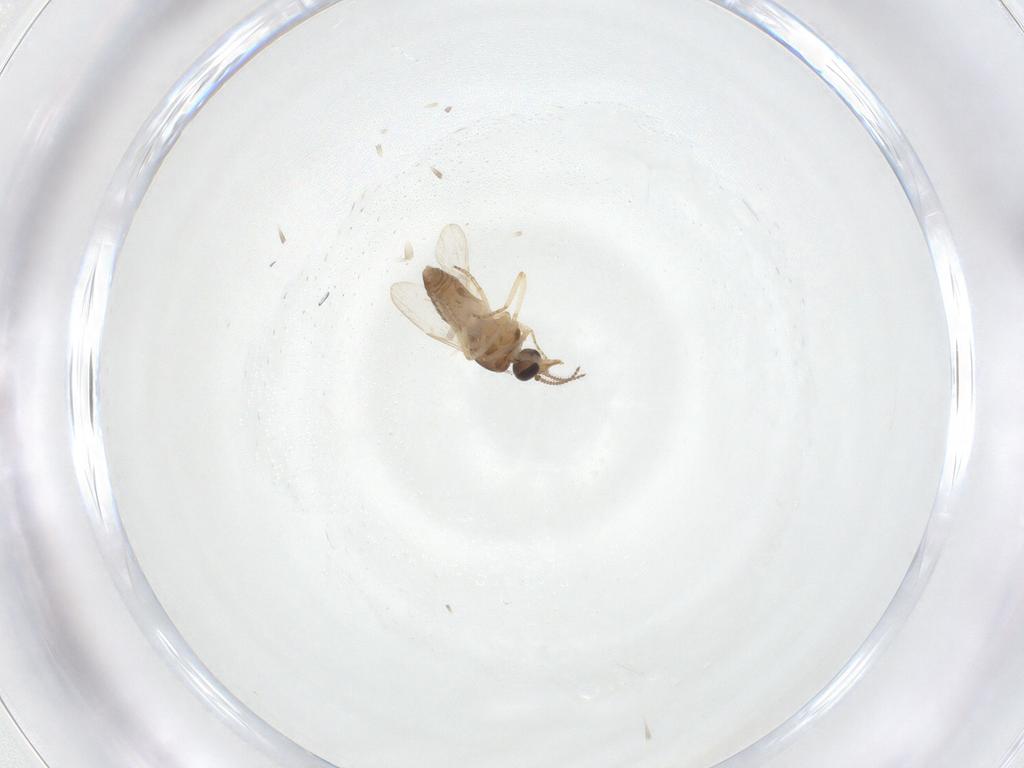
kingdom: Animalia
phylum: Arthropoda
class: Insecta
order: Diptera
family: Ceratopogonidae
